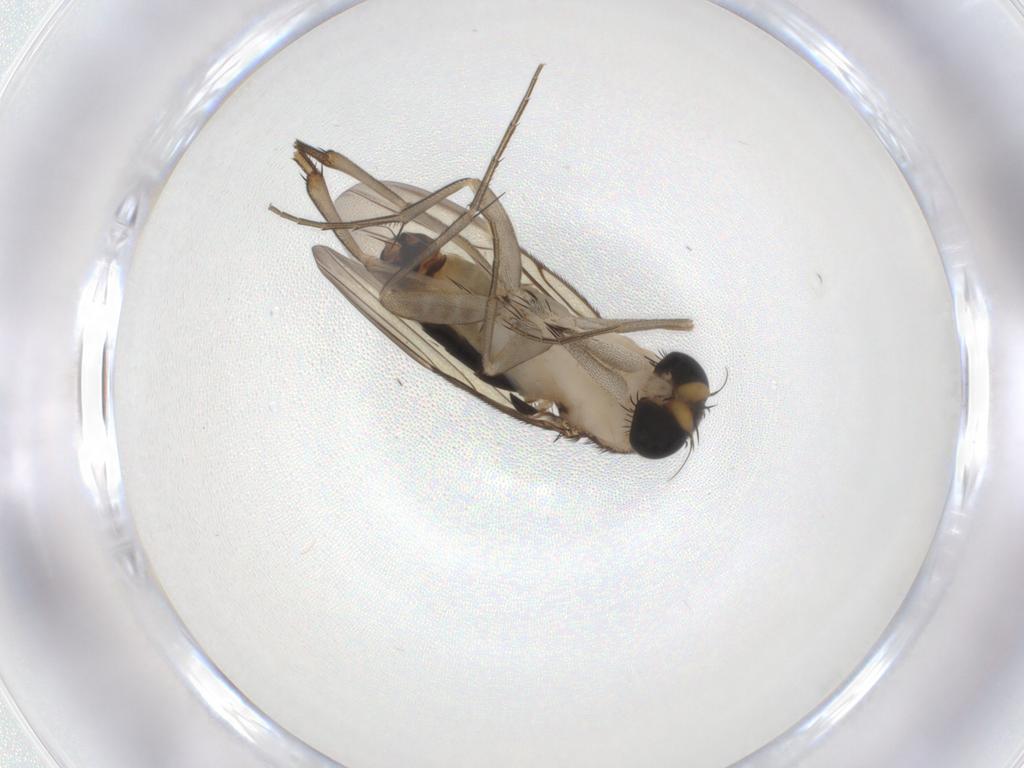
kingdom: Animalia
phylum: Arthropoda
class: Insecta
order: Diptera
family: Phoridae
